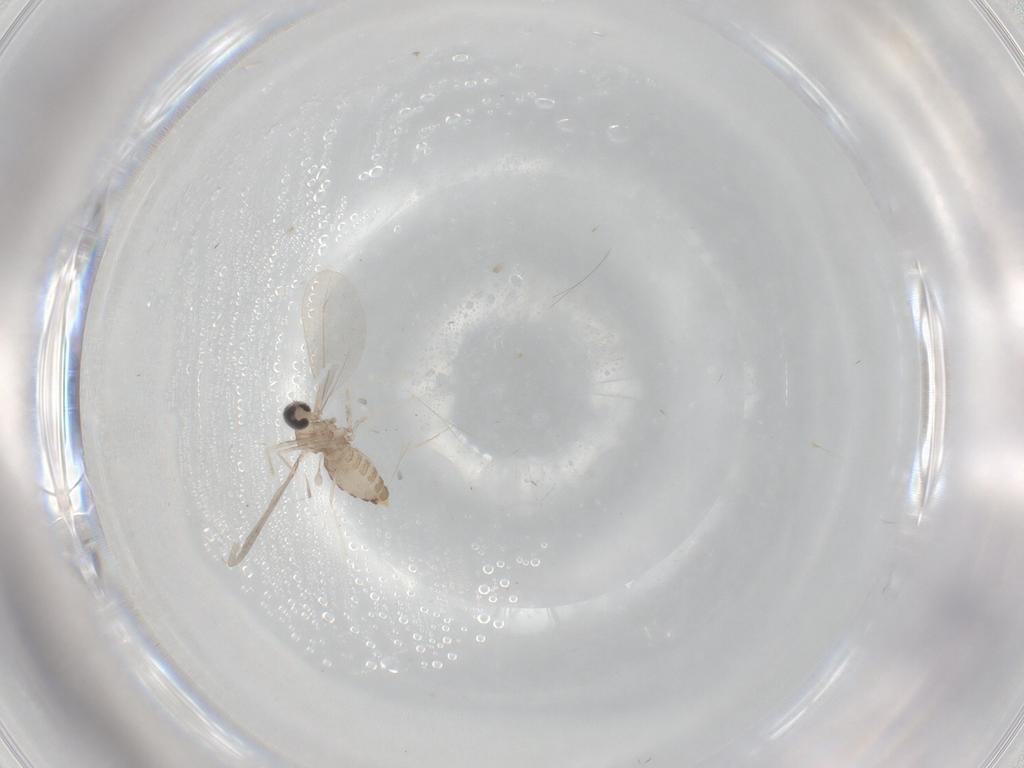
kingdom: Animalia
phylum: Arthropoda
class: Insecta
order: Diptera
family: Cecidomyiidae
